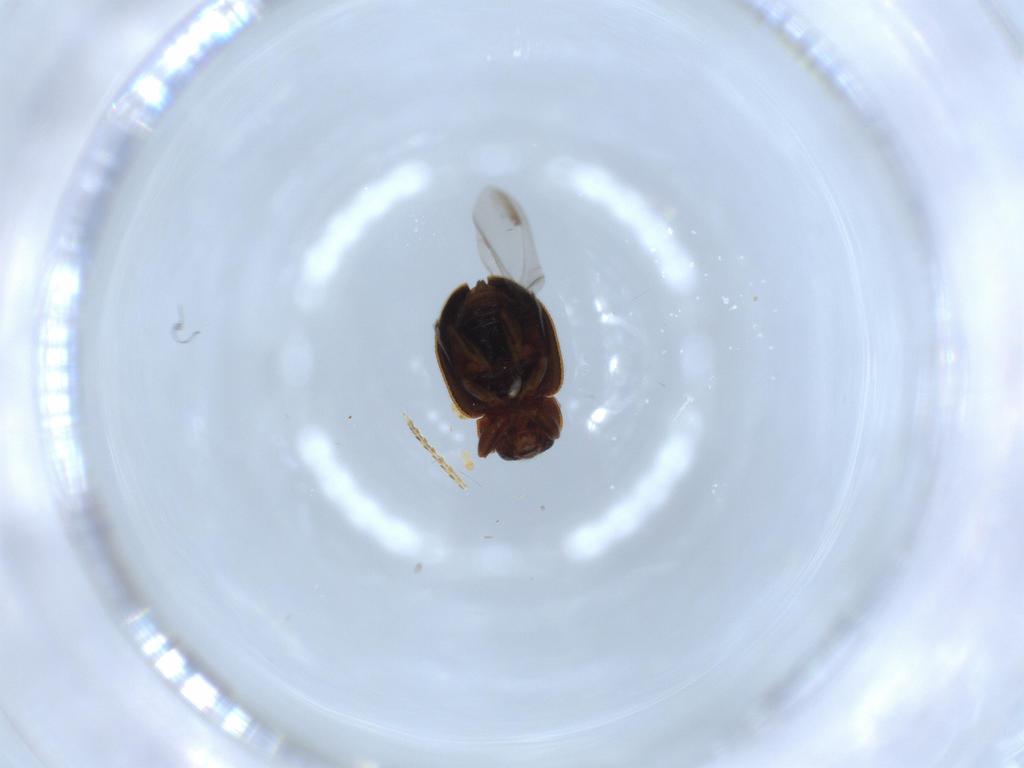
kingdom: Animalia
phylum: Arthropoda
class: Insecta
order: Coleoptera
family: Coccinellidae
